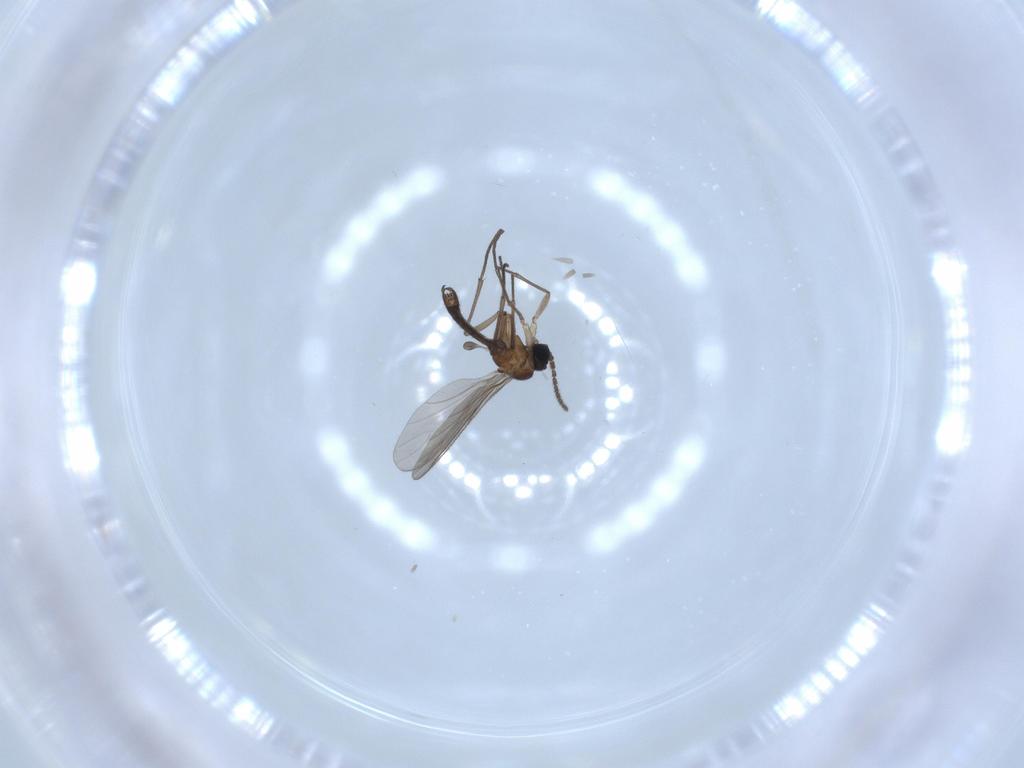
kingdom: Animalia
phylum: Arthropoda
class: Insecta
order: Diptera
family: Sciaridae
